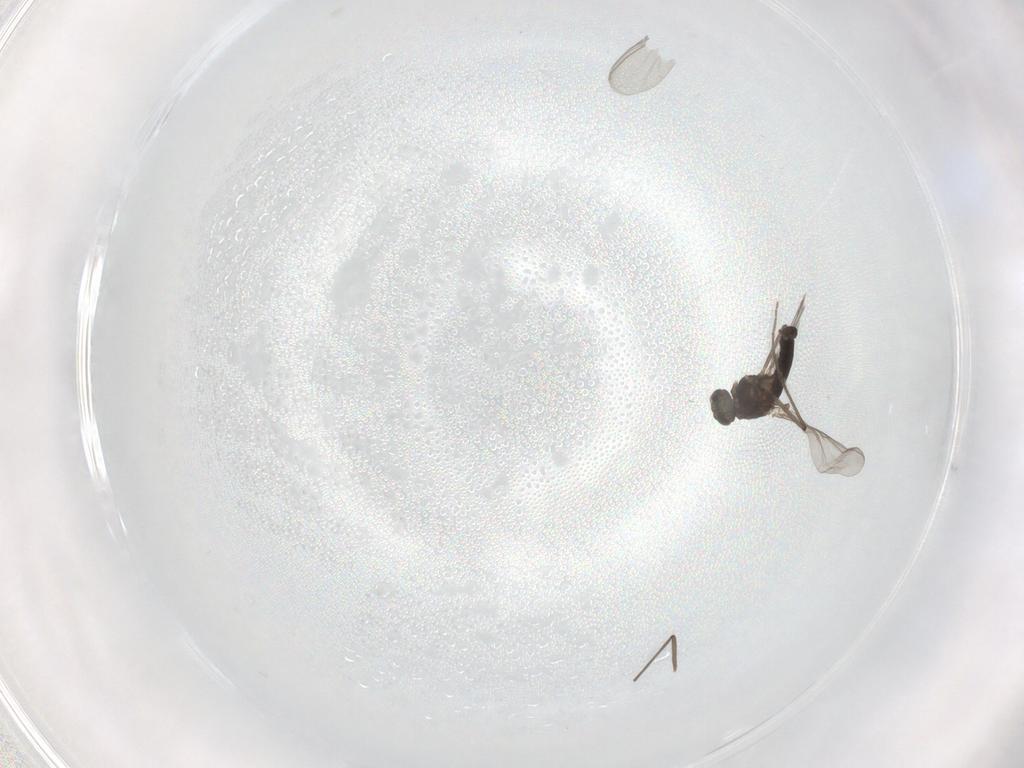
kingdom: Animalia
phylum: Arthropoda
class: Insecta
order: Diptera
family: Chironomidae
